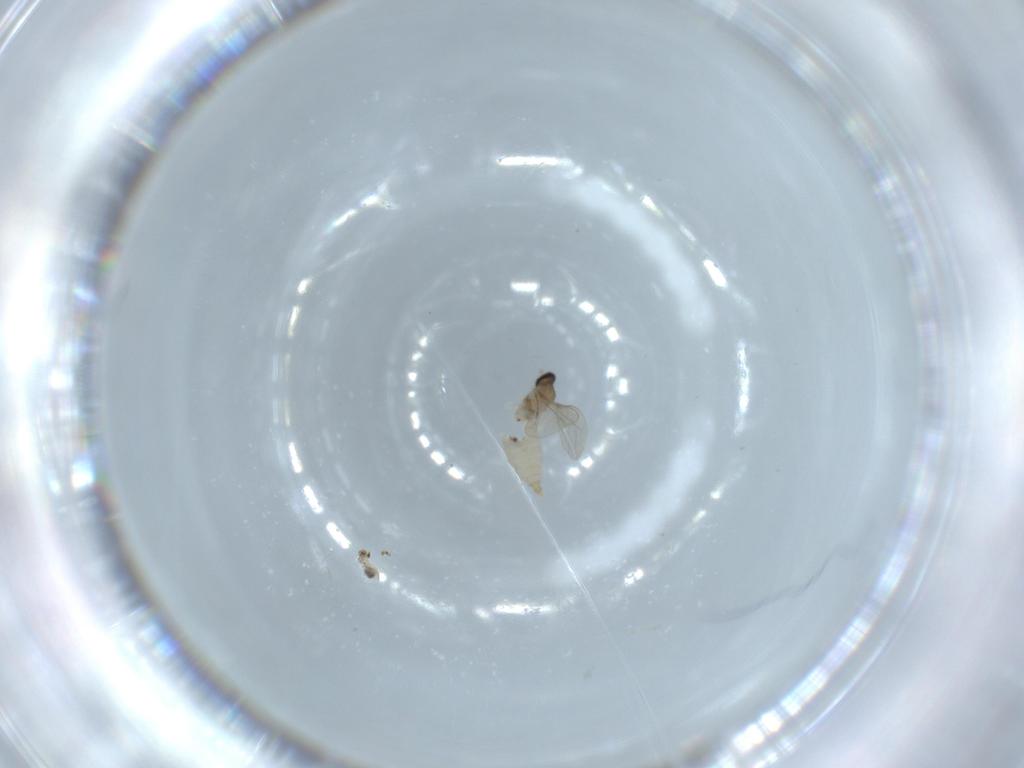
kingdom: Animalia
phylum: Arthropoda
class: Insecta
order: Diptera
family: Cecidomyiidae
